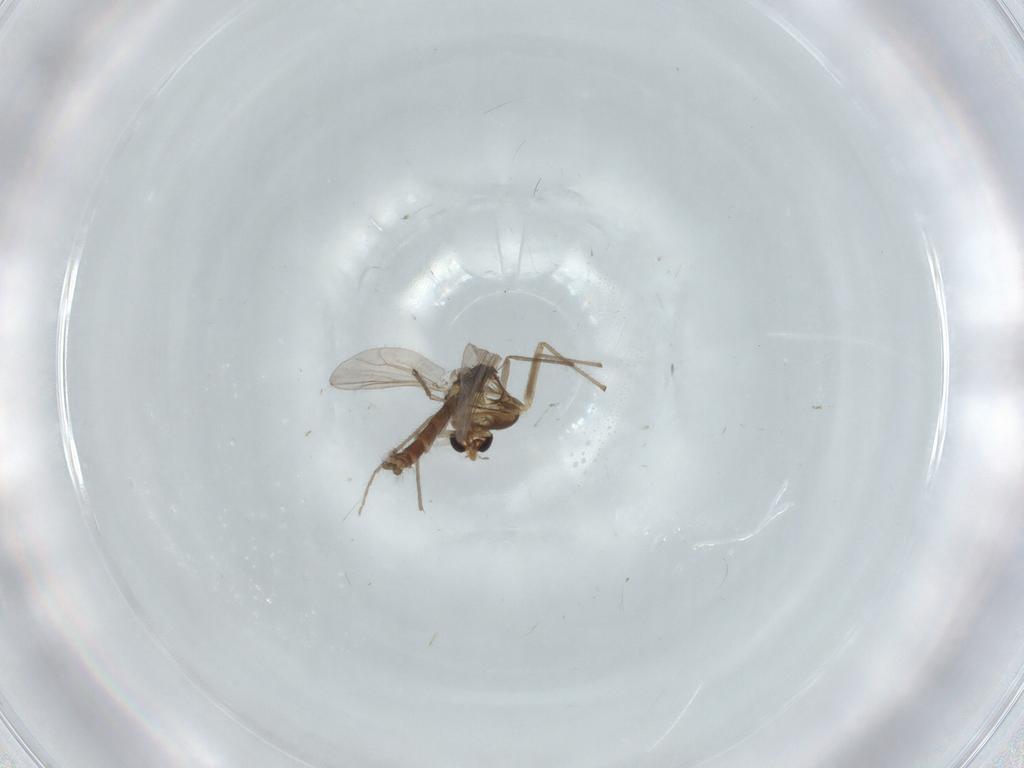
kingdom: Animalia
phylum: Arthropoda
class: Insecta
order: Diptera
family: Chironomidae
